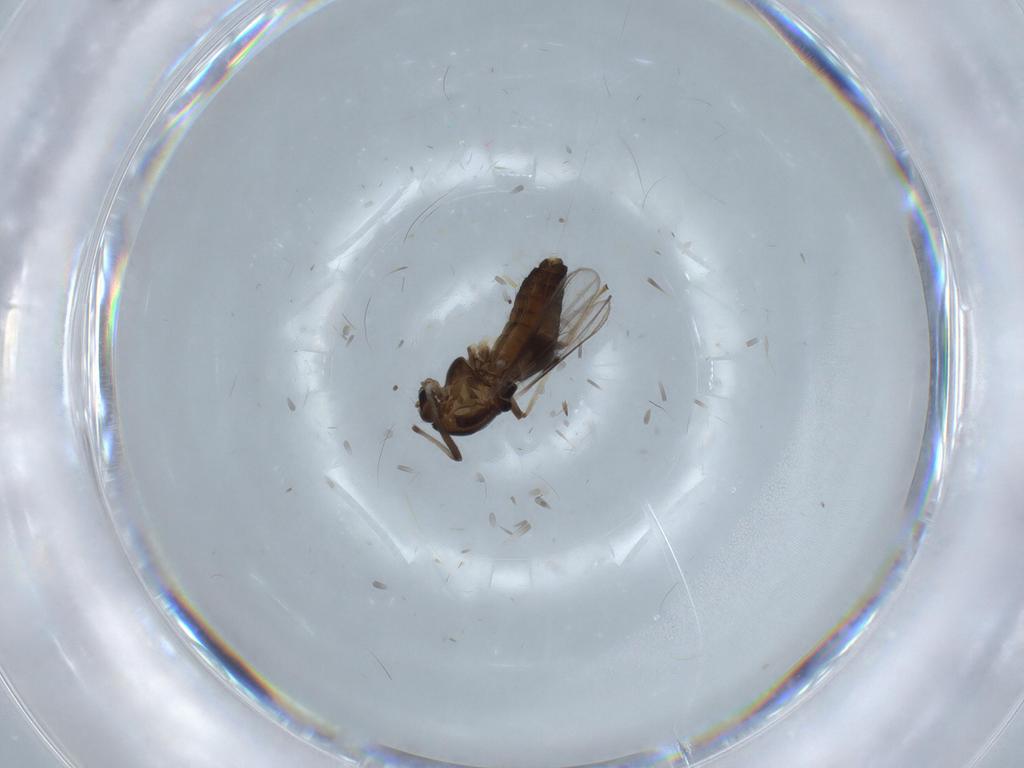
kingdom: Animalia
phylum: Arthropoda
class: Insecta
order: Diptera
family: Chironomidae
